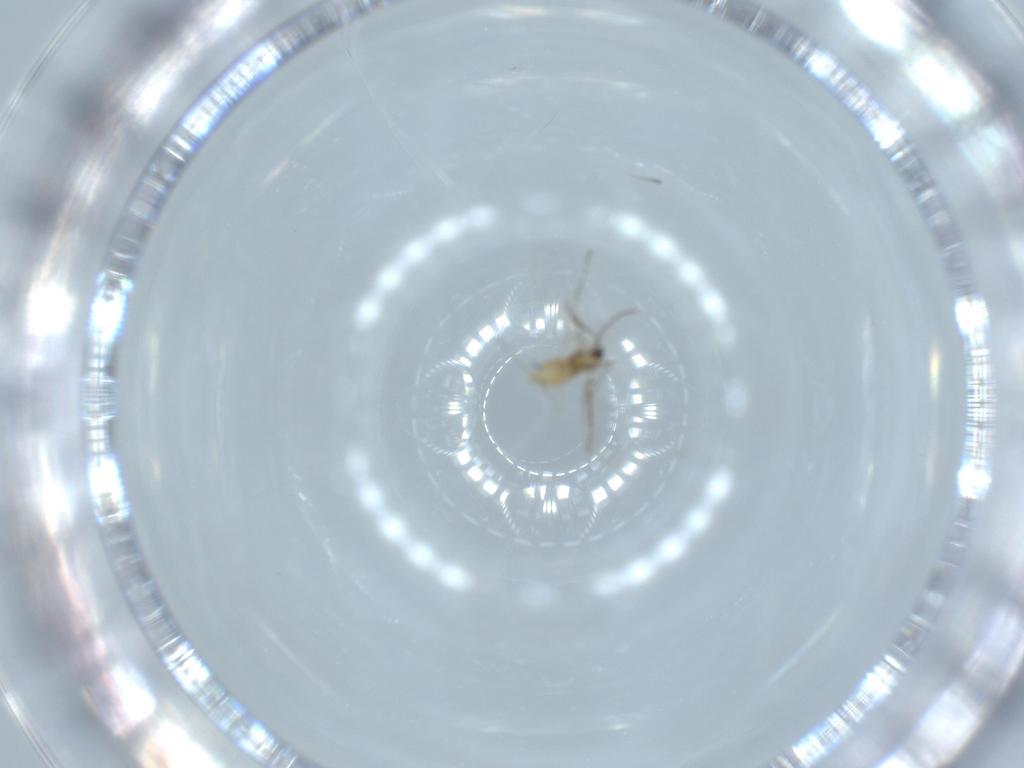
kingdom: Animalia
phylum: Arthropoda
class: Insecta
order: Diptera
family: Cecidomyiidae
